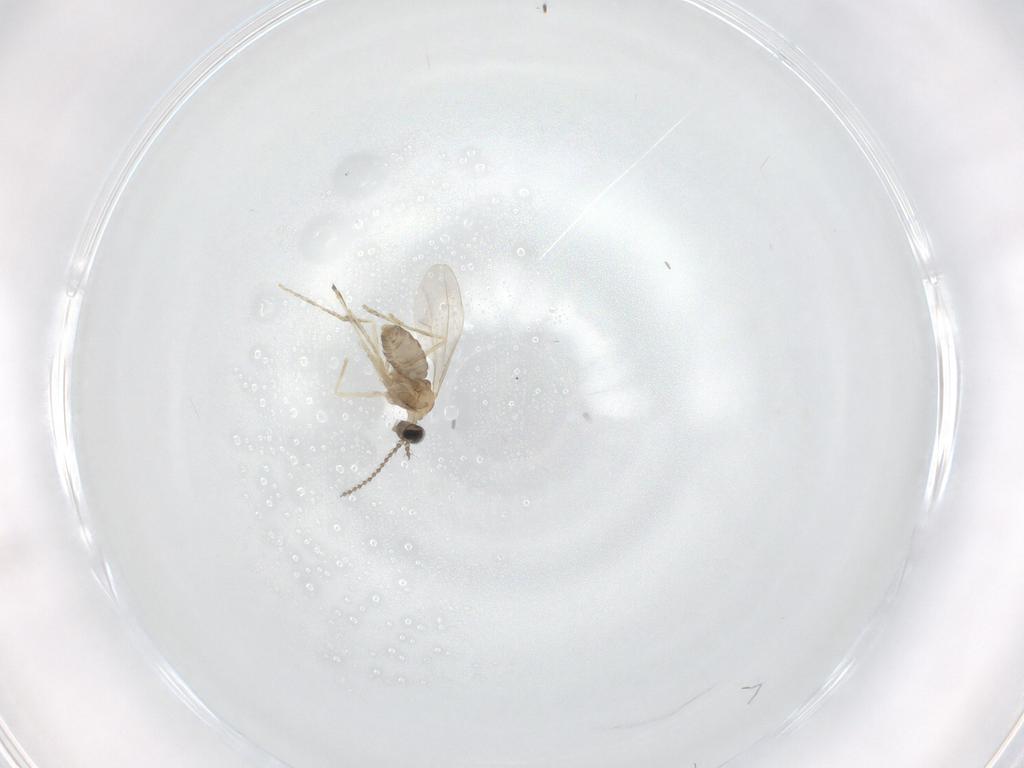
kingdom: Animalia
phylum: Arthropoda
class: Insecta
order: Diptera
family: Cecidomyiidae
